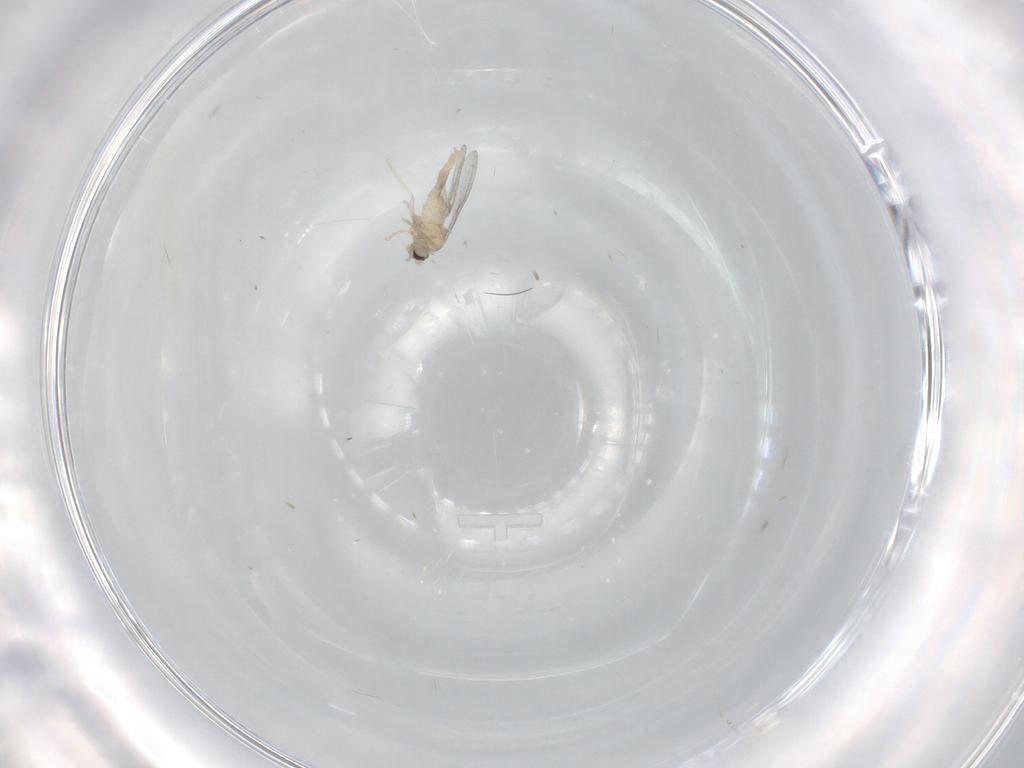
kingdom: Animalia
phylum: Arthropoda
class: Insecta
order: Diptera
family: Cecidomyiidae
